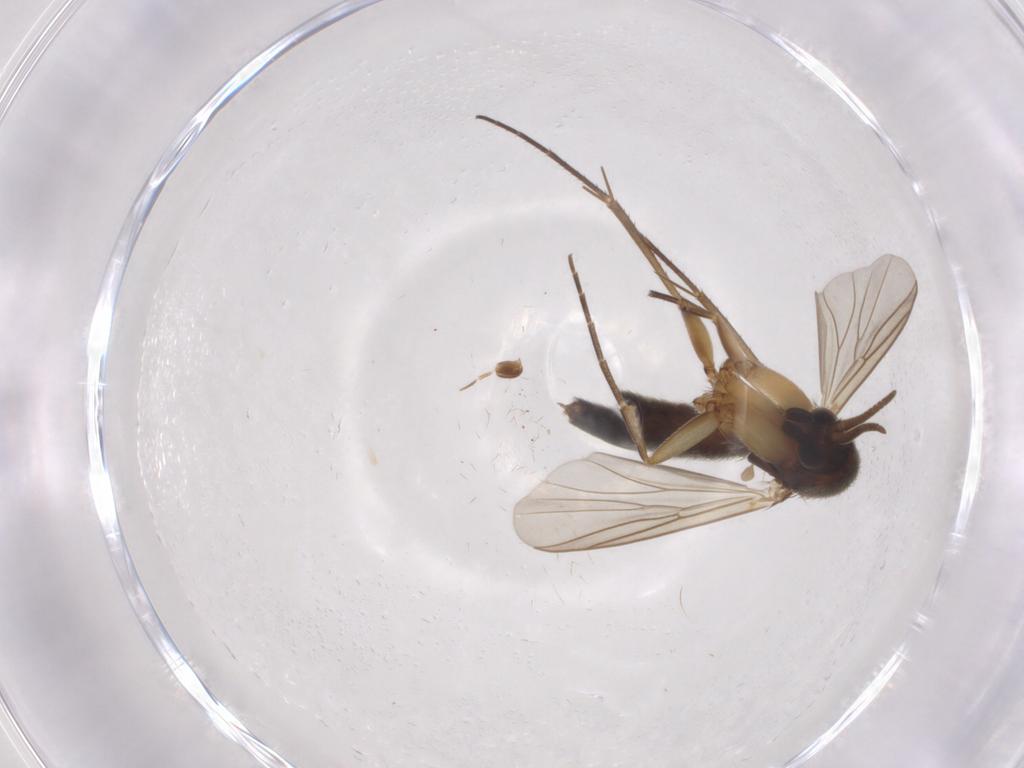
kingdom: Animalia
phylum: Arthropoda
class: Insecta
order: Diptera
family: Mycetophilidae
